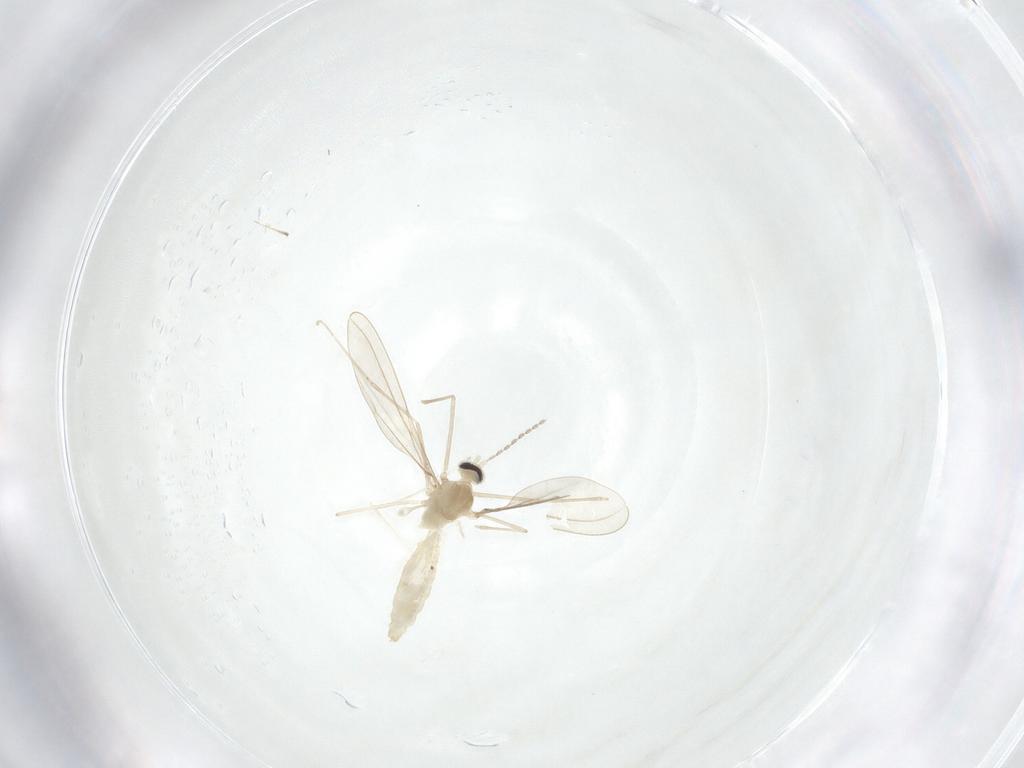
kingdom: Animalia
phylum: Arthropoda
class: Insecta
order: Diptera
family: Cecidomyiidae
